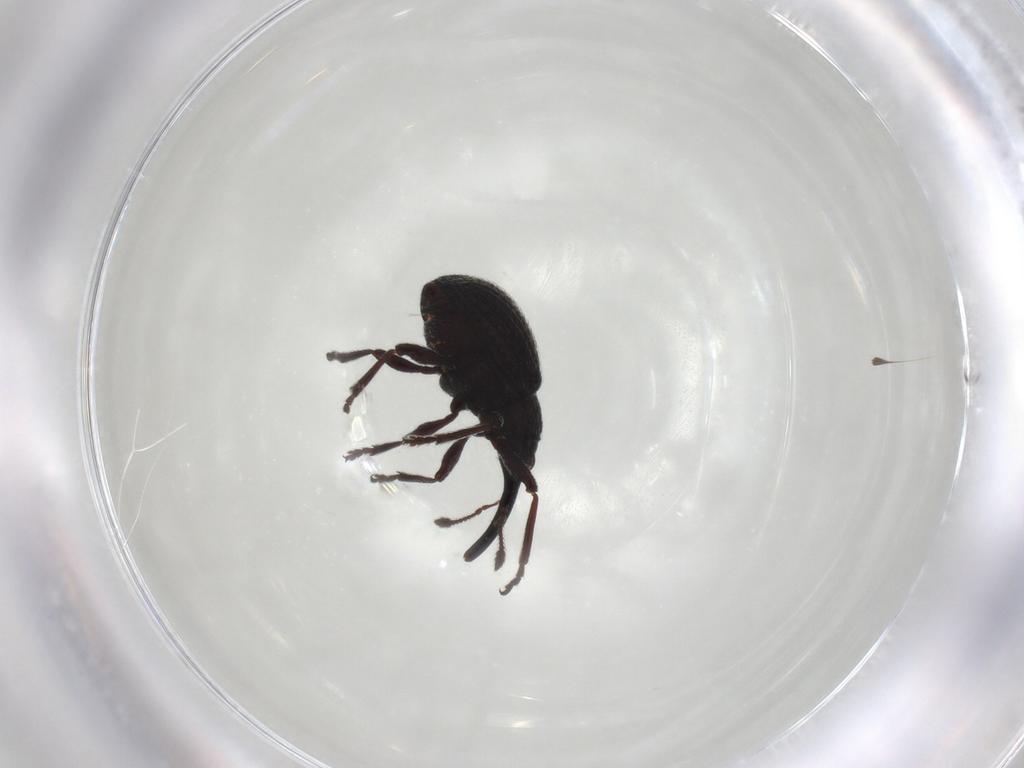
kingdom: Animalia
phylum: Arthropoda
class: Insecta
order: Coleoptera
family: Brentidae
